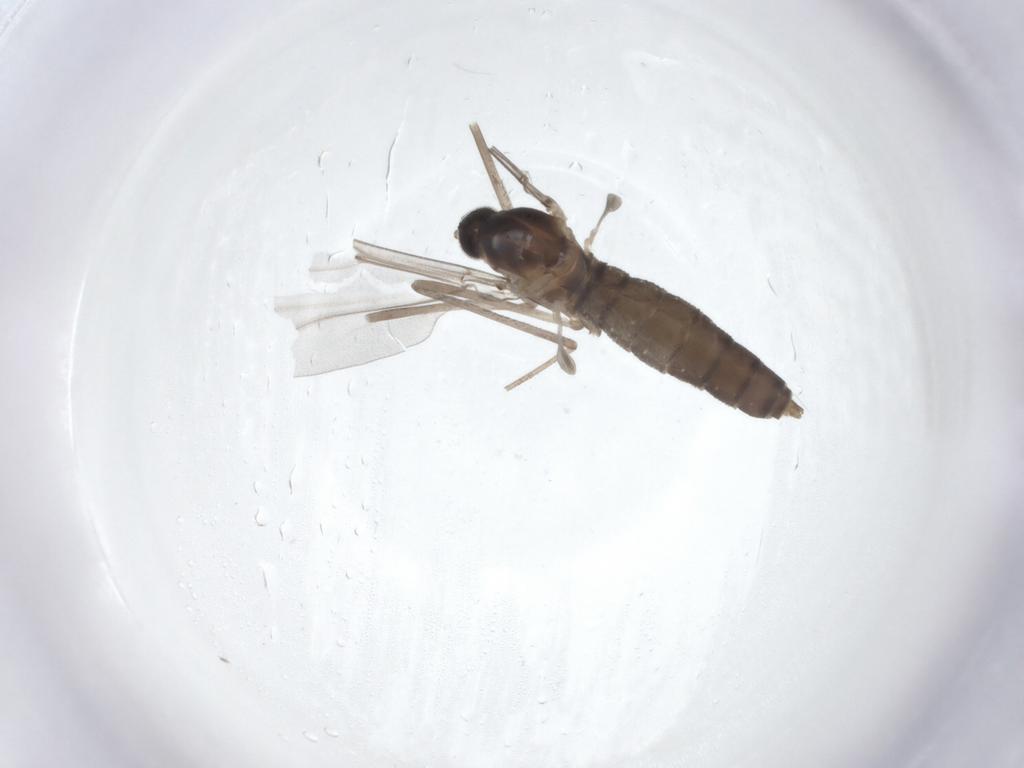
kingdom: Animalia
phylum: Arthropoda
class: Insecta
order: Diptera
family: Cecidomyiidae
